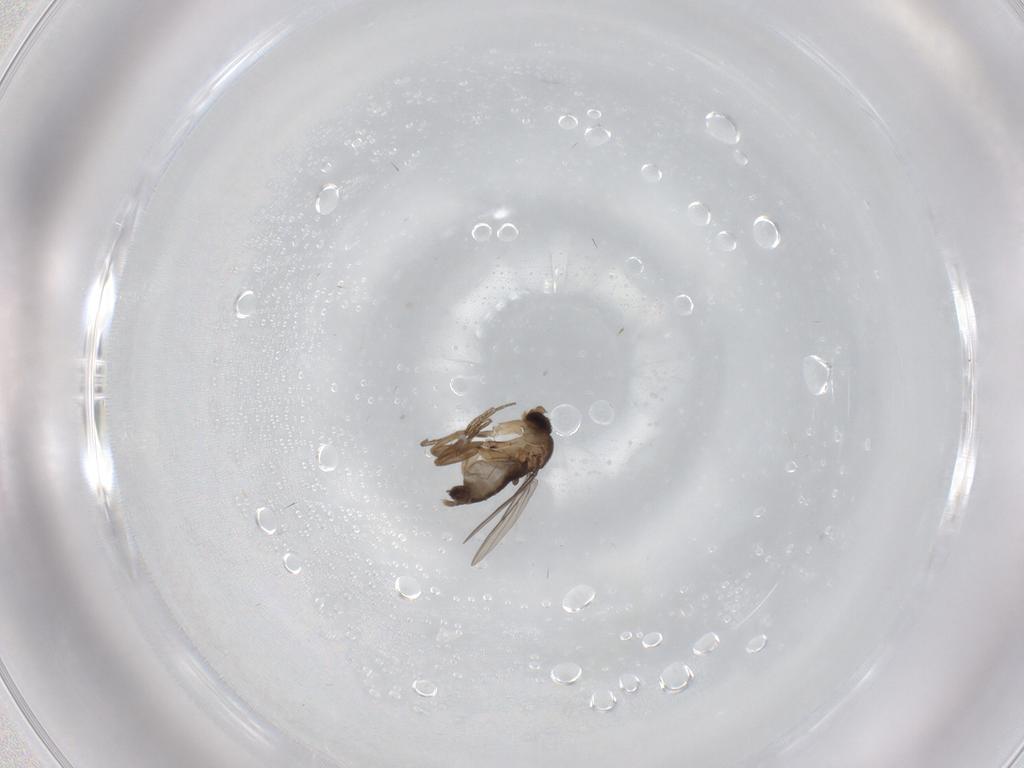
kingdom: Animalia
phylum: Arthropoda
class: Insecta
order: Diptera
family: Phoridae
